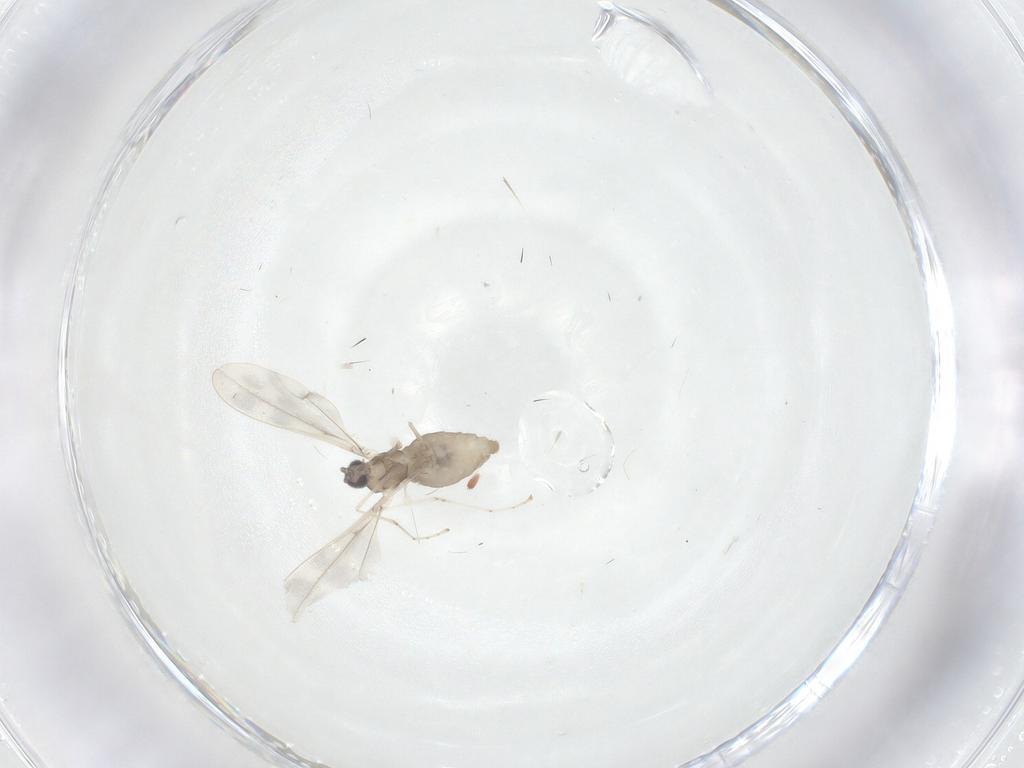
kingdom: Animalia
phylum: Arthropoda
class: Insecta
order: Diptera
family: Cecidomyiidae
